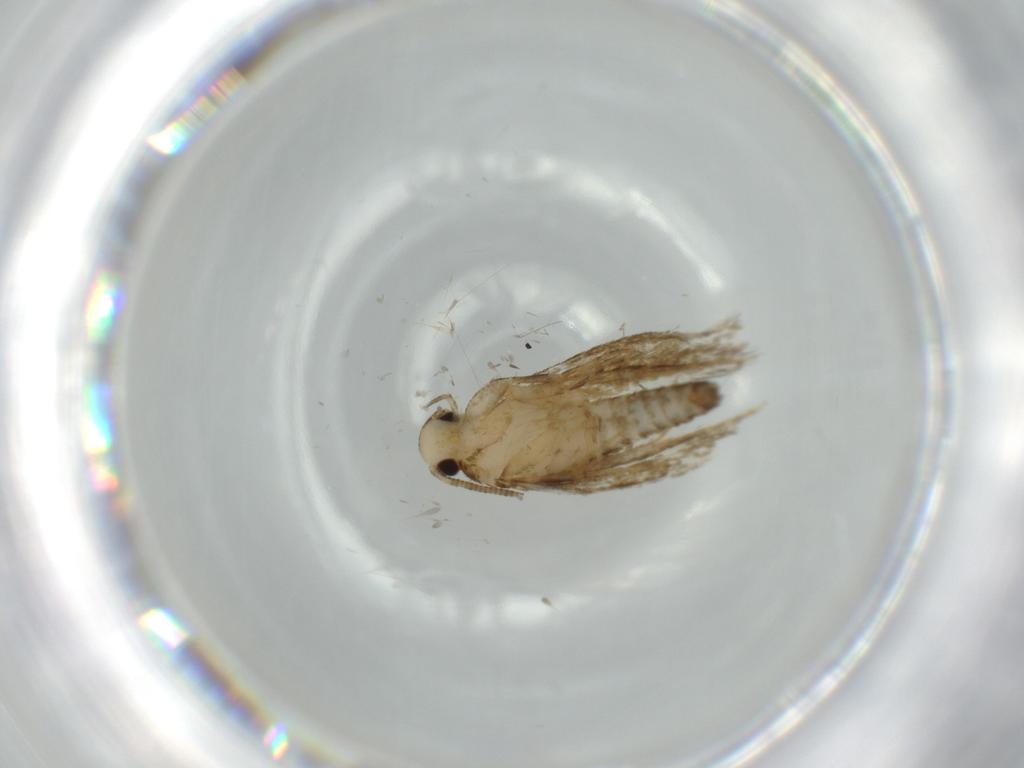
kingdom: Animalia
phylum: Arthropoda
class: Insecta
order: Lepidoptera
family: Tineidae
